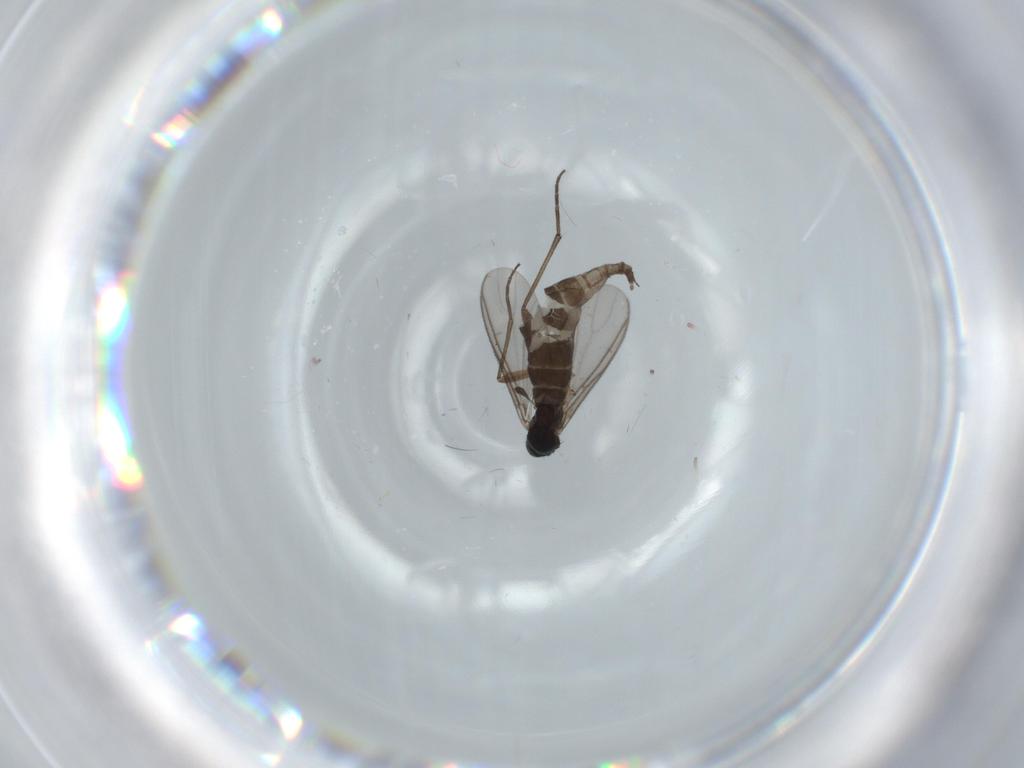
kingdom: Animalia
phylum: Arthropoda
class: Insecta
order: Diptera
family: Sciaridae
